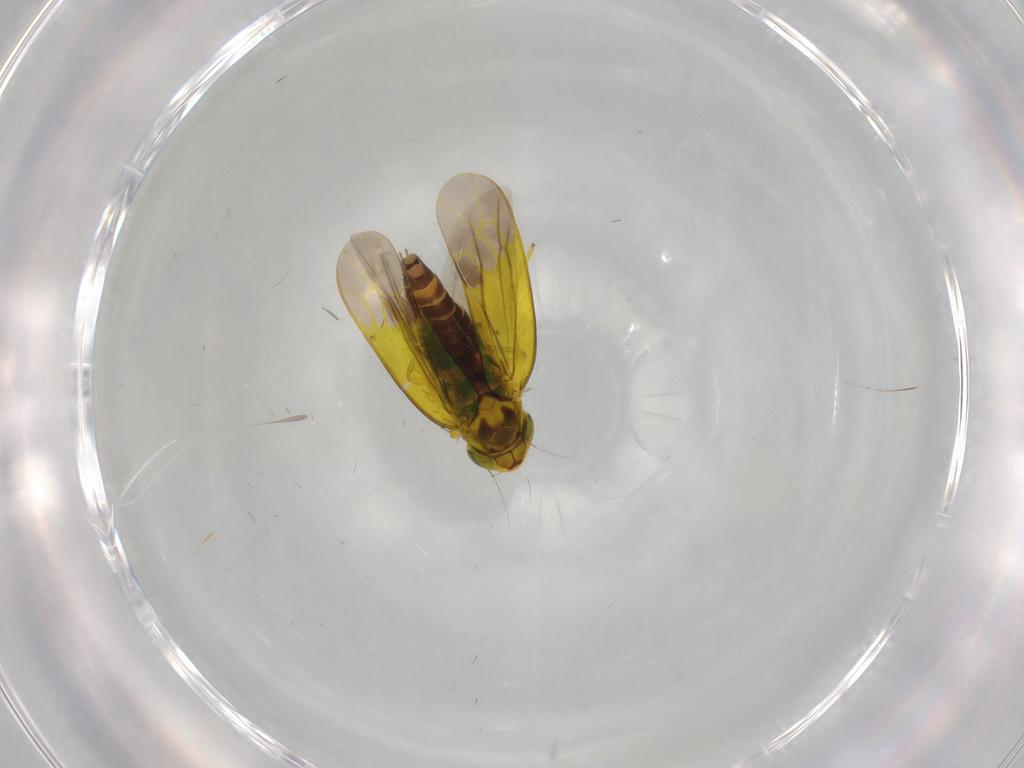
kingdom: Animalia
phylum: Arthropoda
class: Insecta
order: Hemiptera
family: Cicadellidae
